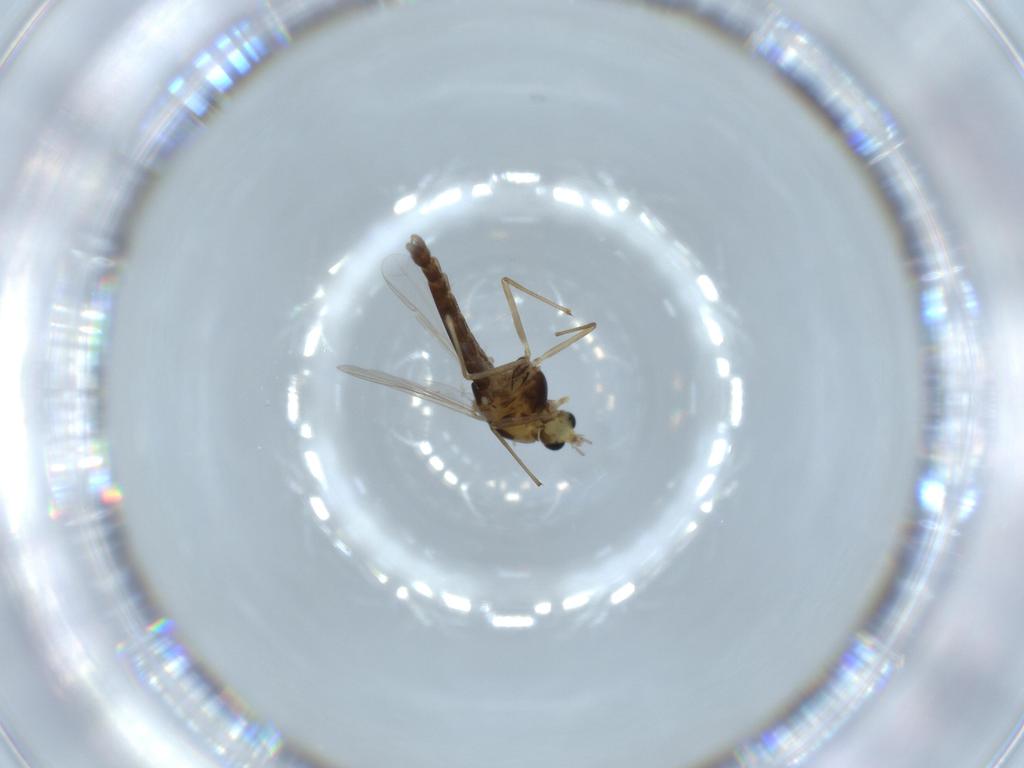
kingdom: Animalia
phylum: Arthropoda
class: Insecta
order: Diptera
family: Chironomidae
